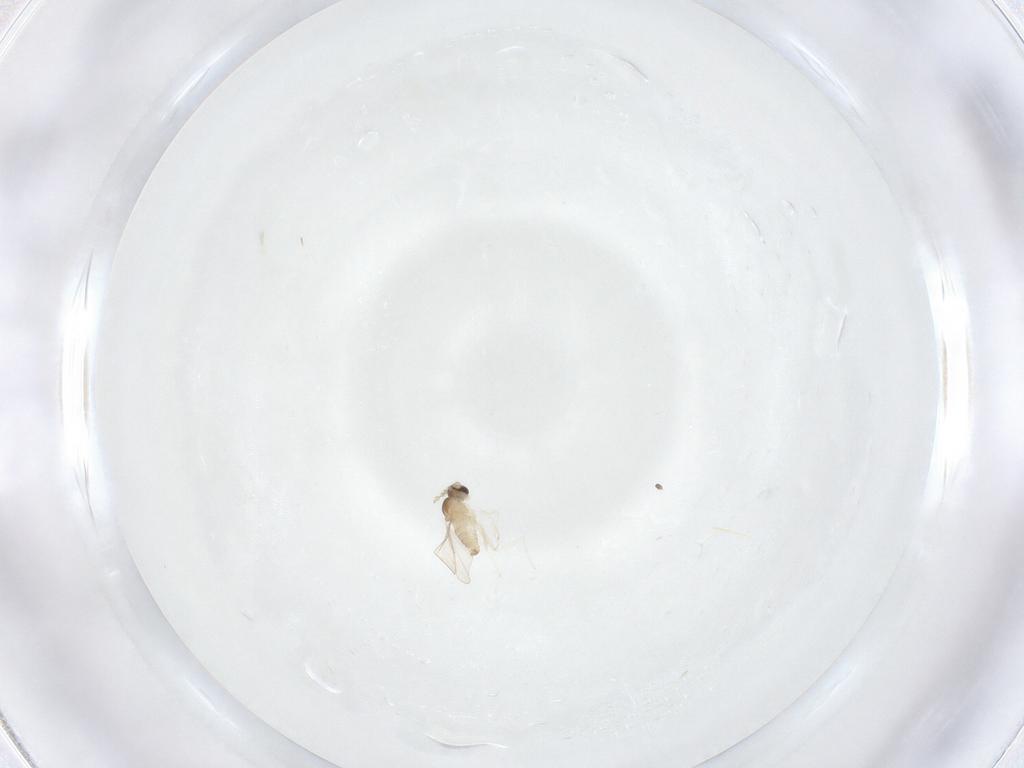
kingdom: Animalia
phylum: Arthropoda
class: Insecta
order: Diptera
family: Cecidomyiidae
